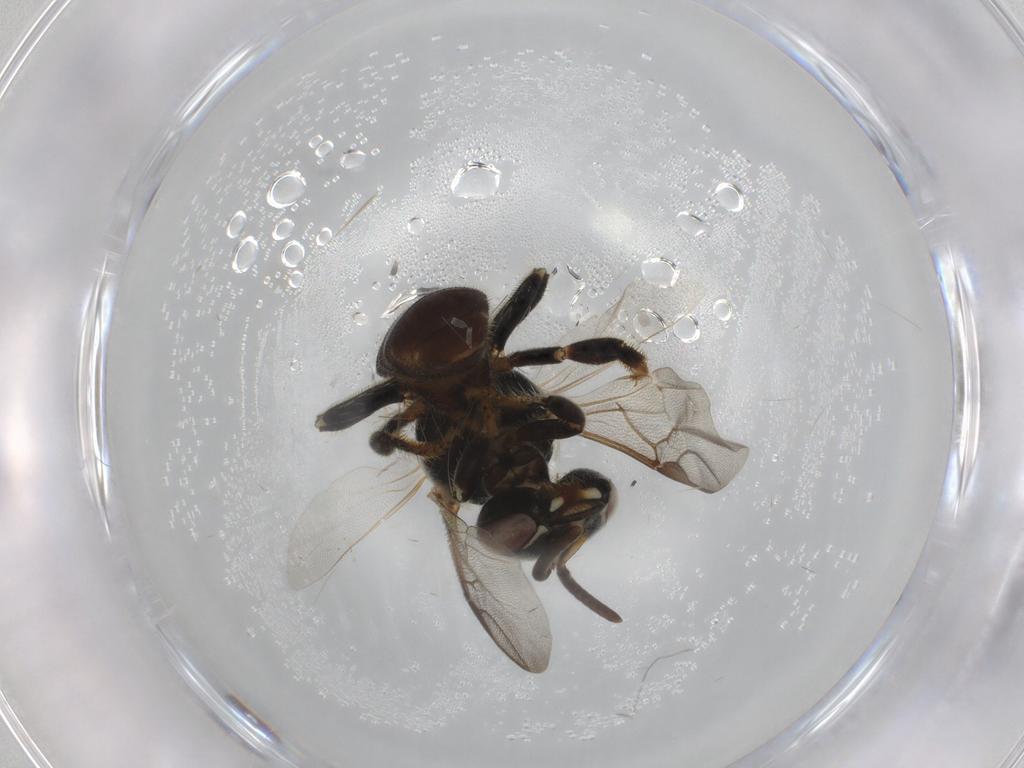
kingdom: Animalia
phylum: Arthropoda
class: Insecta
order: Hymenoptera
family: Apidae
